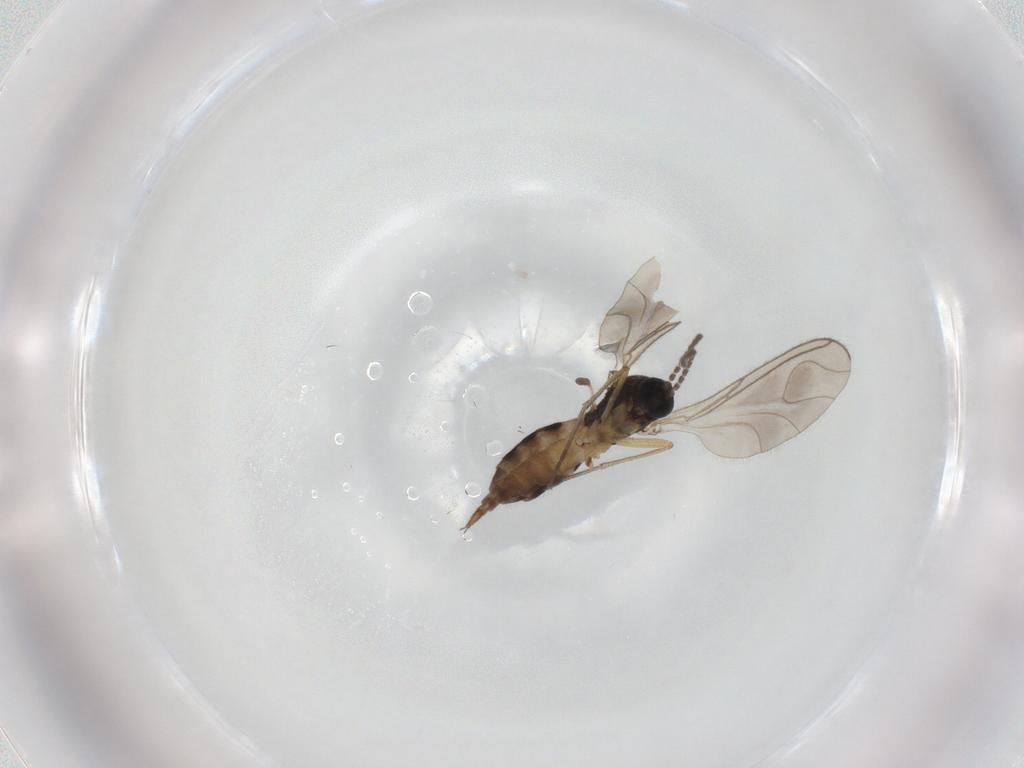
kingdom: Animalia
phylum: Arthropoda
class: Insecta
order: Diptera
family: Sciaridae
